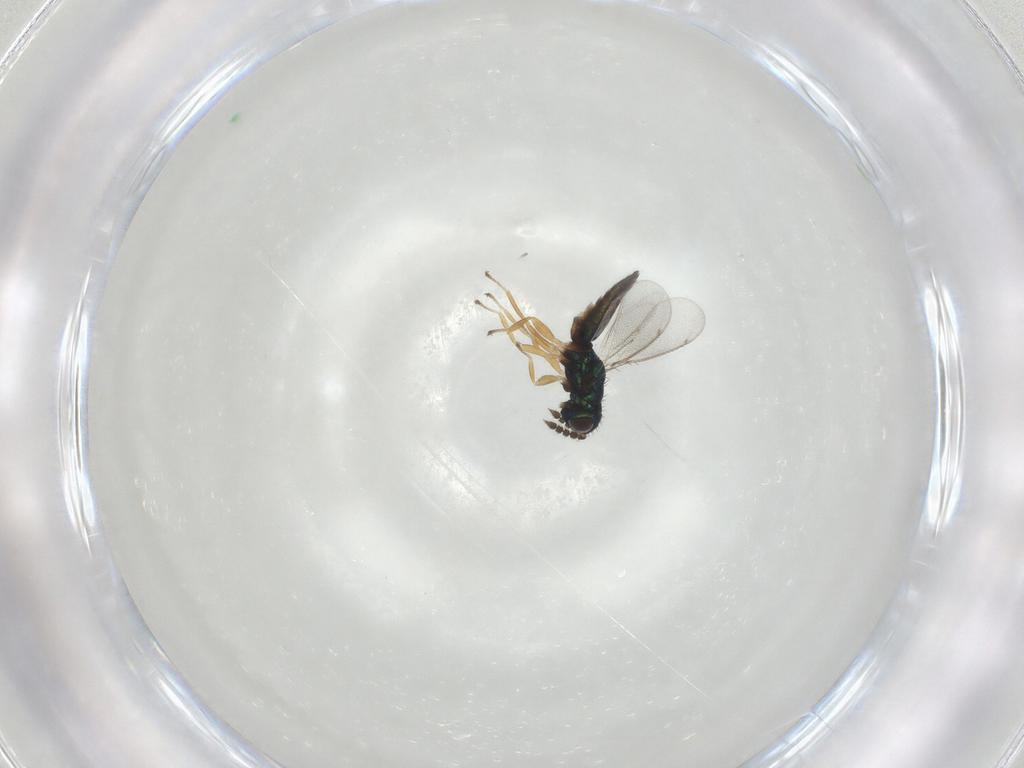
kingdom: Animalia
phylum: Arthropoda
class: Insecta
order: Hymenoptera
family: Eulophidae
